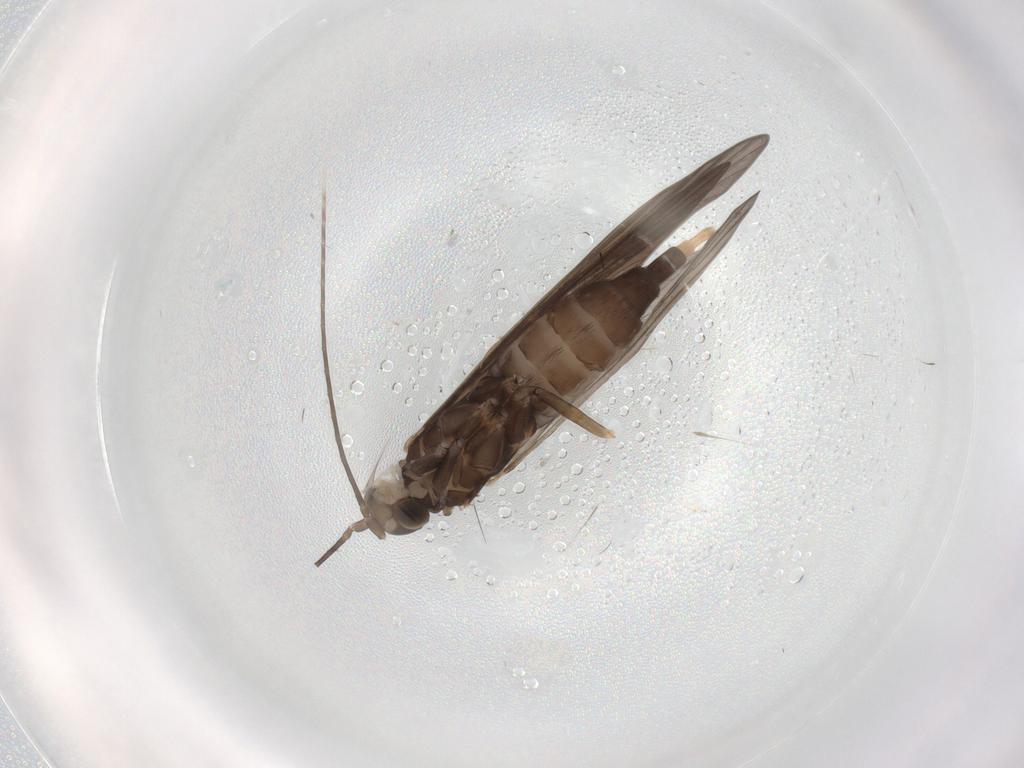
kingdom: Animalia
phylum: Arthropoda
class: Insecta
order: Trichoptera
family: Xiphocentronidae
